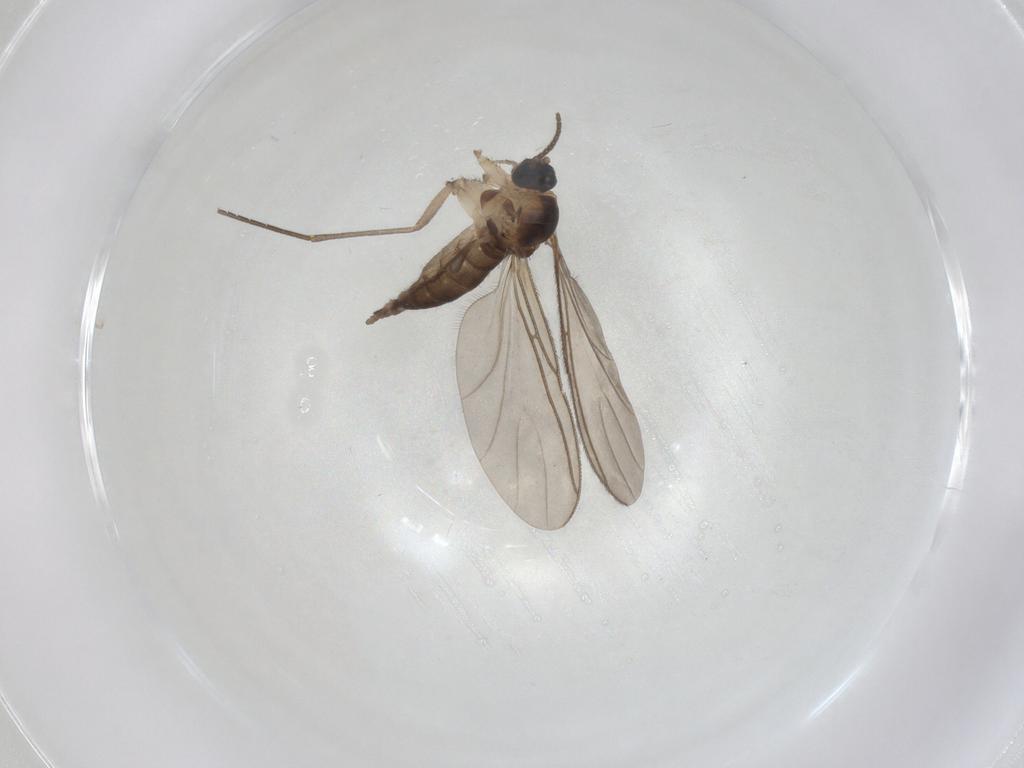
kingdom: Animalia
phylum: Arthropoda
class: Insecta
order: Diptera
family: Sciaridae
